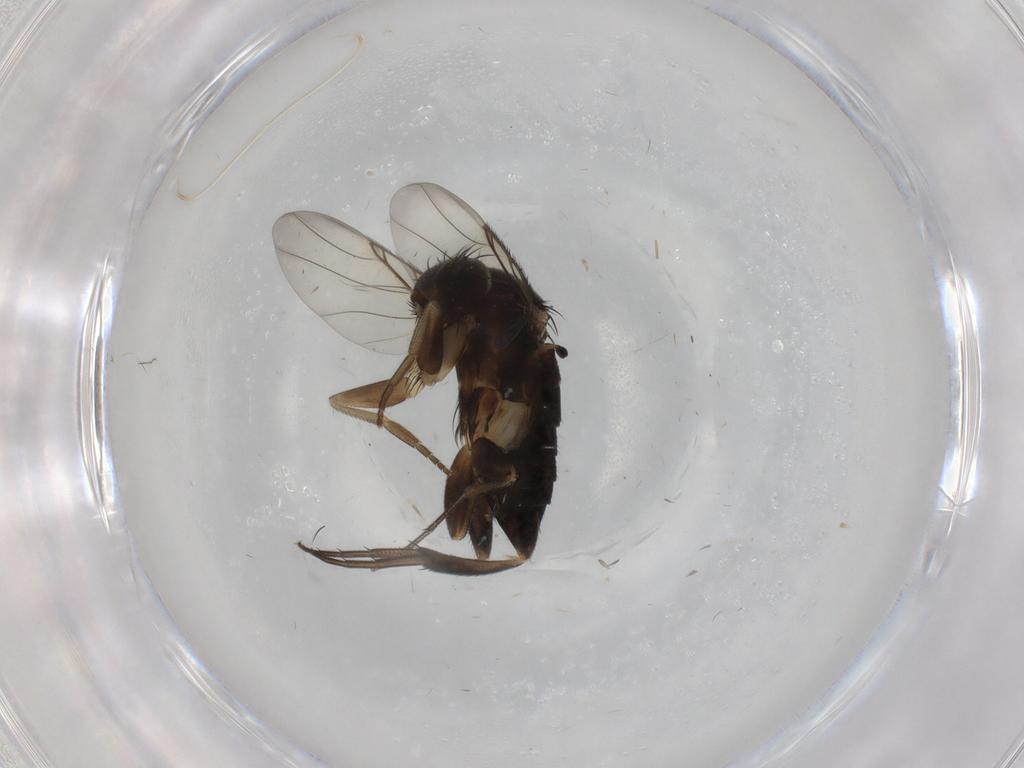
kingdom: Animalia
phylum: Arthropoda
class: Insecta
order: Diptera
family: Phoridae
